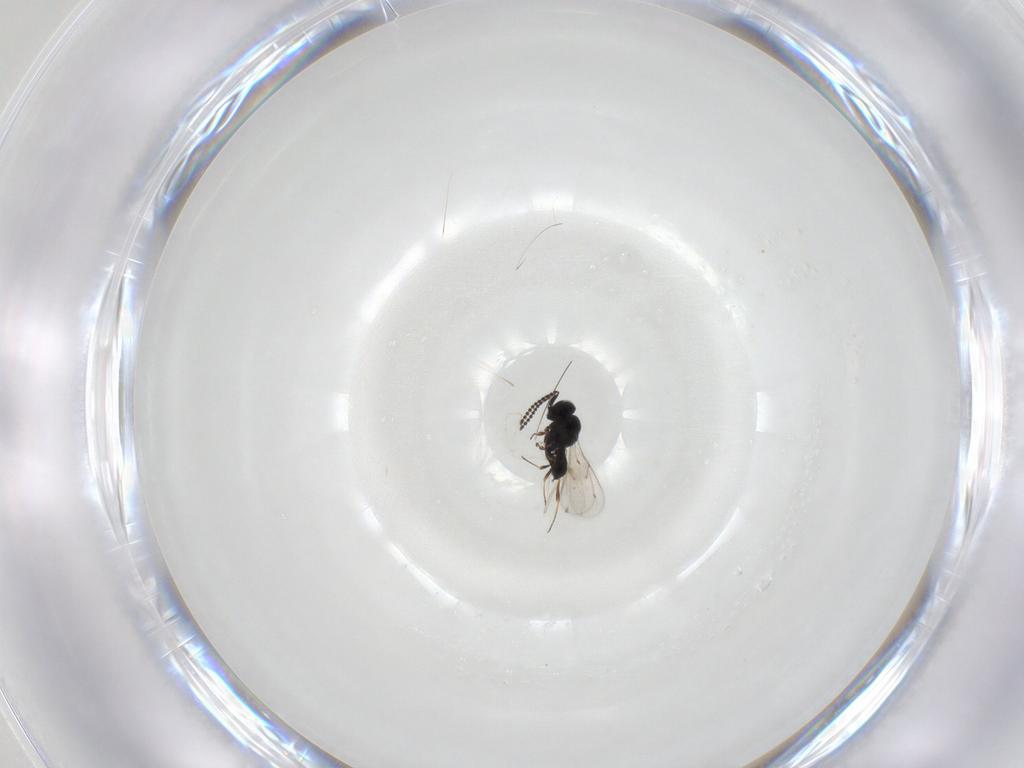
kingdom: Animalia
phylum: Arthropoda
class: Insecta
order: Hymenoptera
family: Scelionidae
